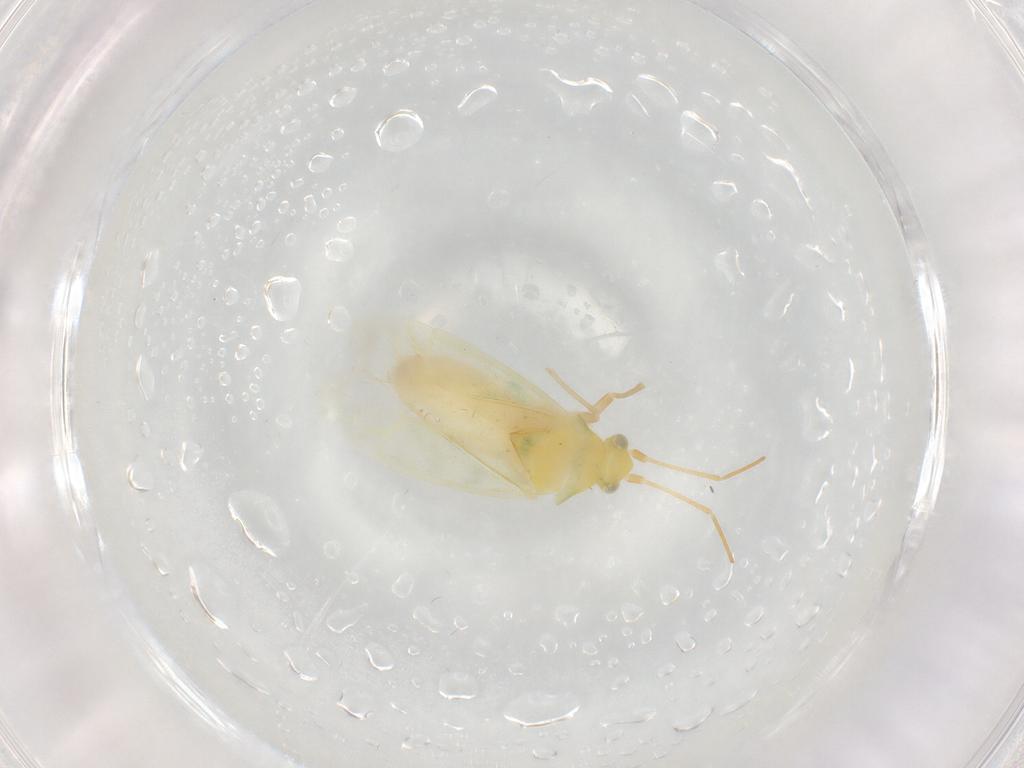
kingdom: Animalia
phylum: Arthropoda
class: Insecta
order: Hemiptera
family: Miridae
